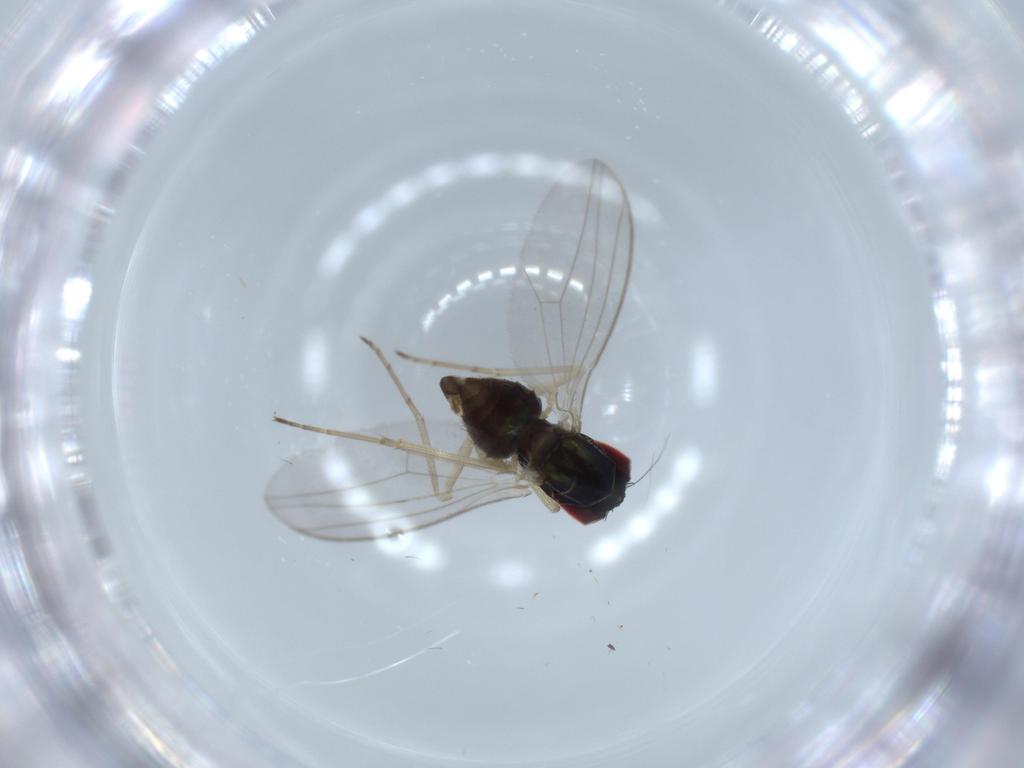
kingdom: Animalia
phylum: Arthropoda
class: Insecta
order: Diptera
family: Dolichopodidae
